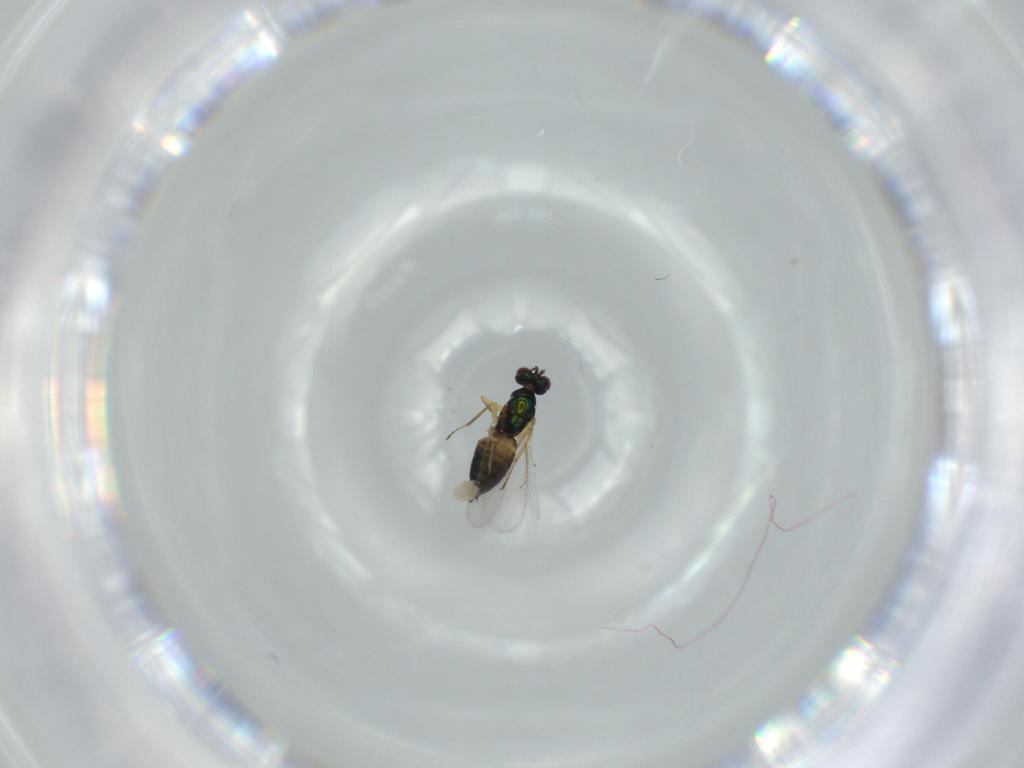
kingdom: Animalia
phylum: Arthropoda
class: Insecta
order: Hymenoptera
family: Eulophidae
